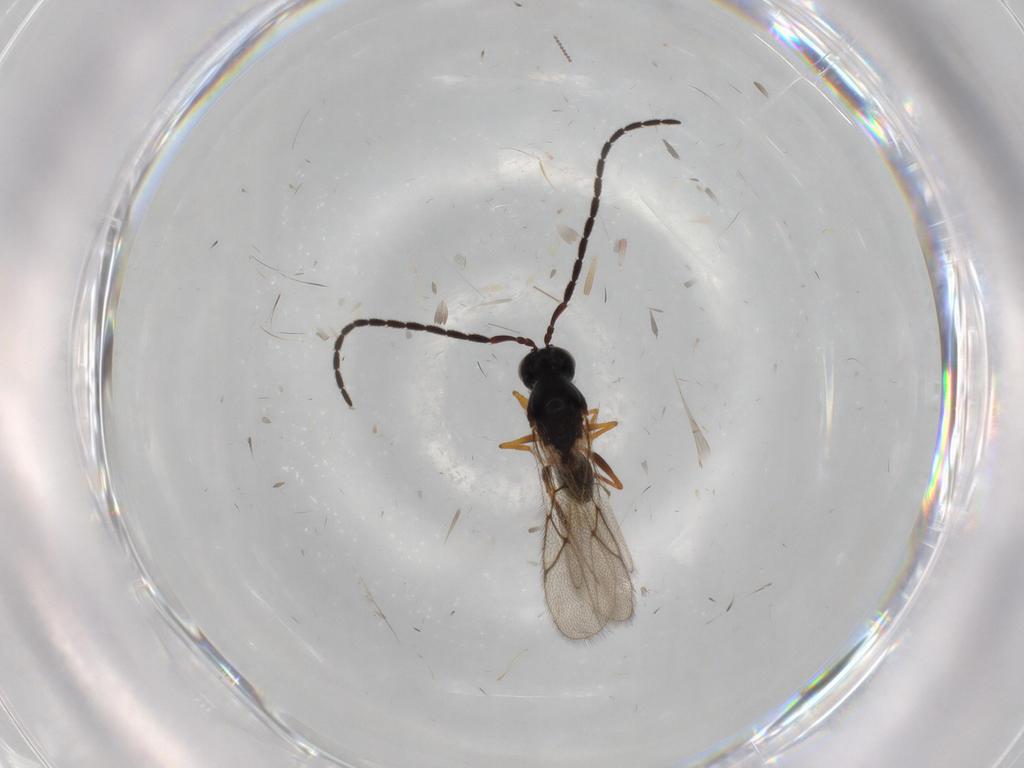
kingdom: Animalia
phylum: Arthropoda
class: Insecta
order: Hymenoptera
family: Figitidae
